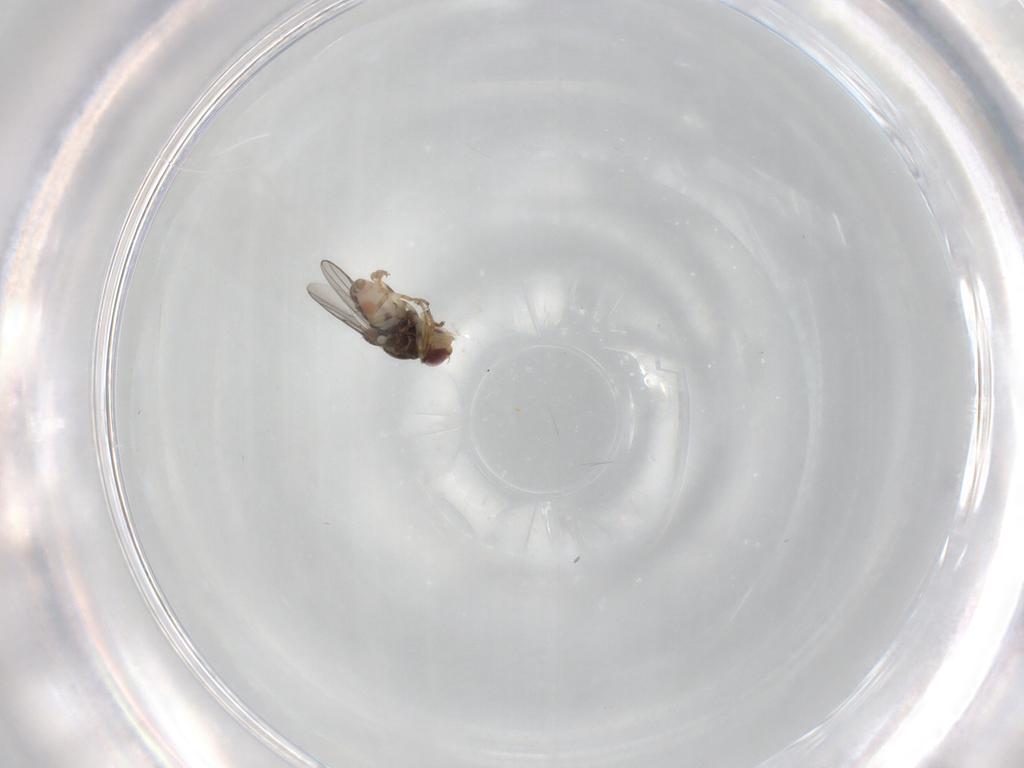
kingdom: Animalia
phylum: Arthropoda
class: Insecta
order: Diptera
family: Chloropidae
